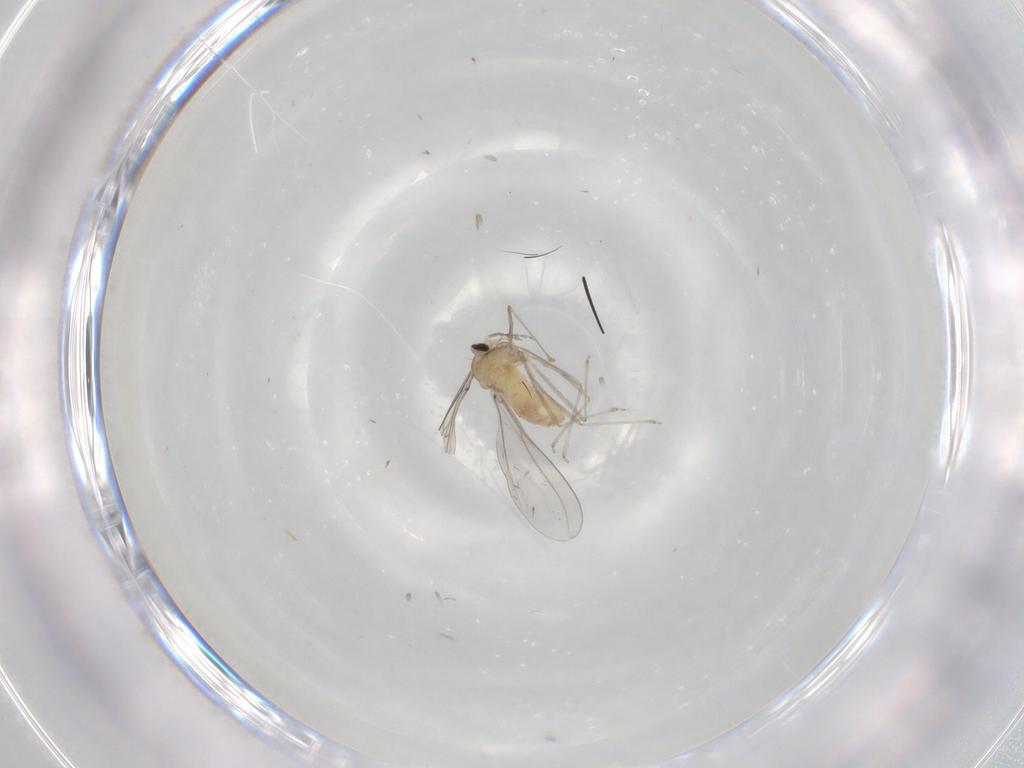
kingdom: Animalia
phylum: Arthropoda
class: Insecta
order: Diptera
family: Cecidomyiidae
